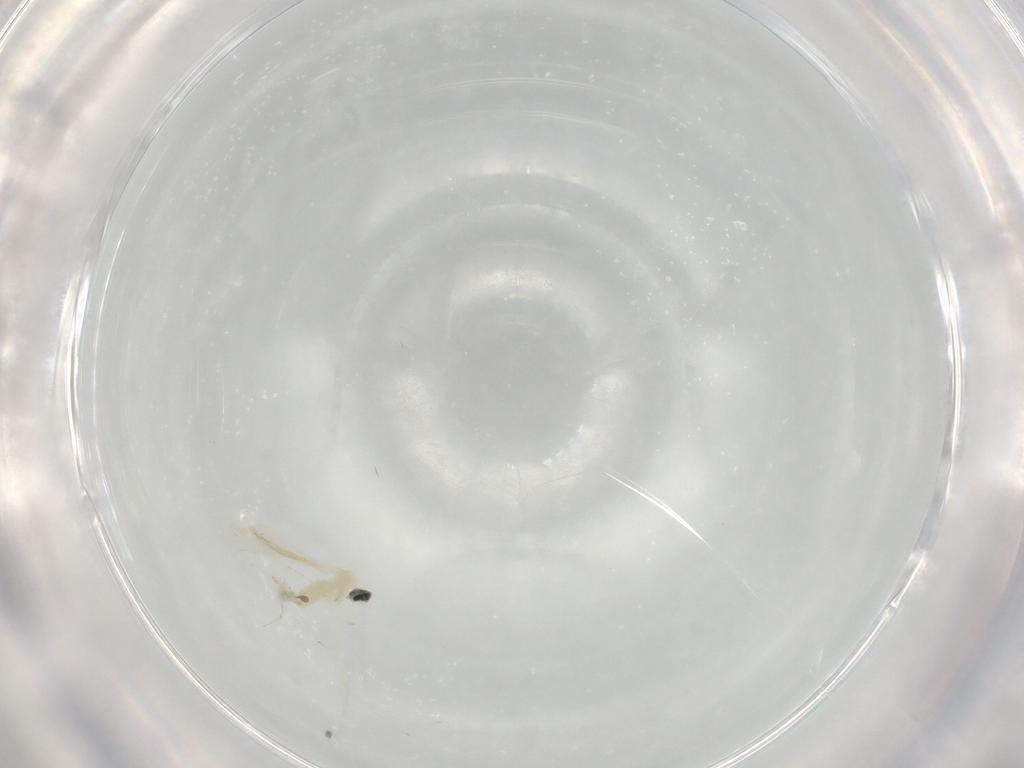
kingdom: Animalia
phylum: Arthropoda
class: Insecta
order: Diptera
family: Cecidomyiidae
